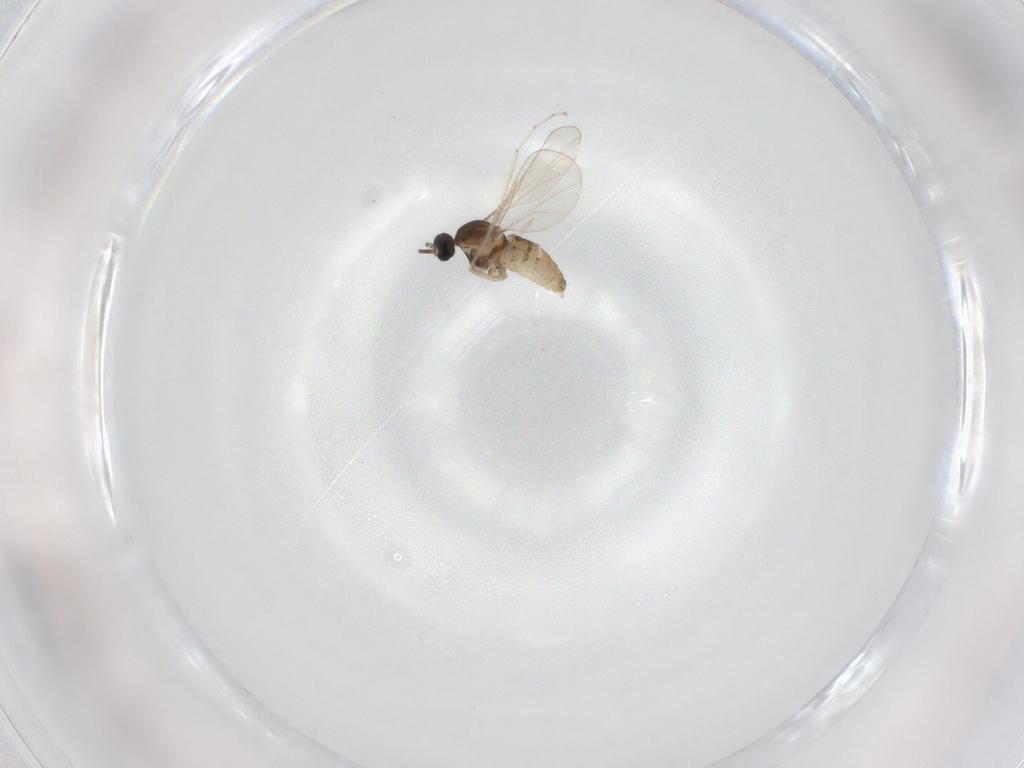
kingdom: Animalia
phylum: Arthropoda
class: Insecta
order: Diptera
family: Cecidomyiidae
